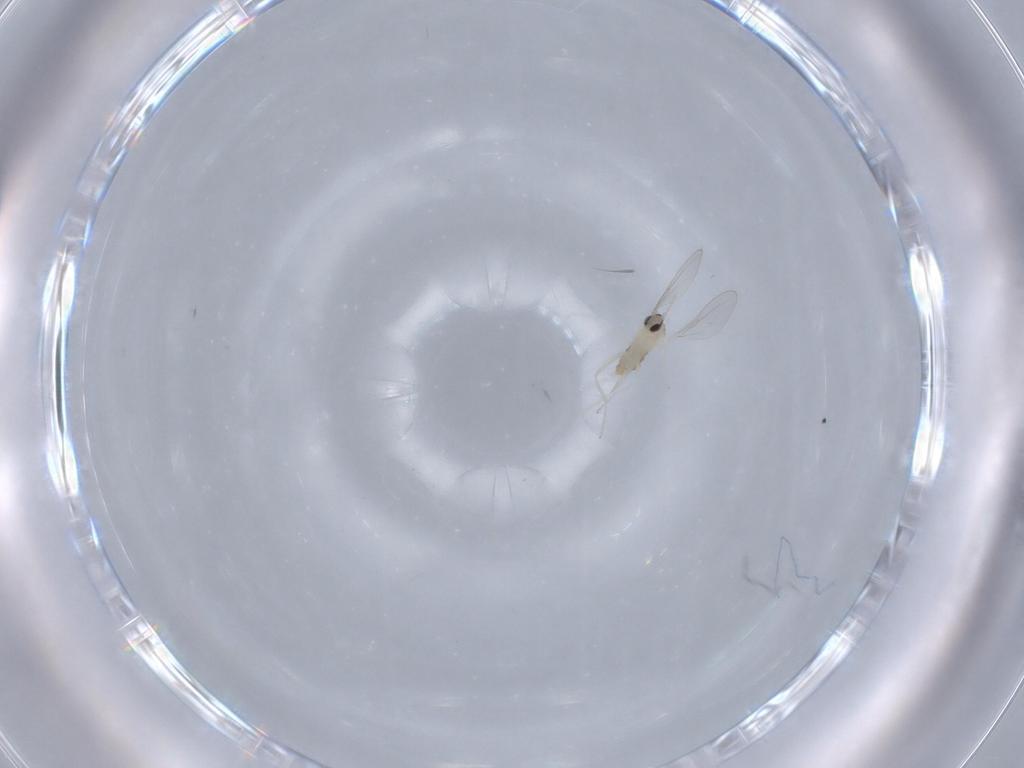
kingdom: Animalia
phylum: Arthropoda
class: Insecta
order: Diptera
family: Cecidomyiidae
